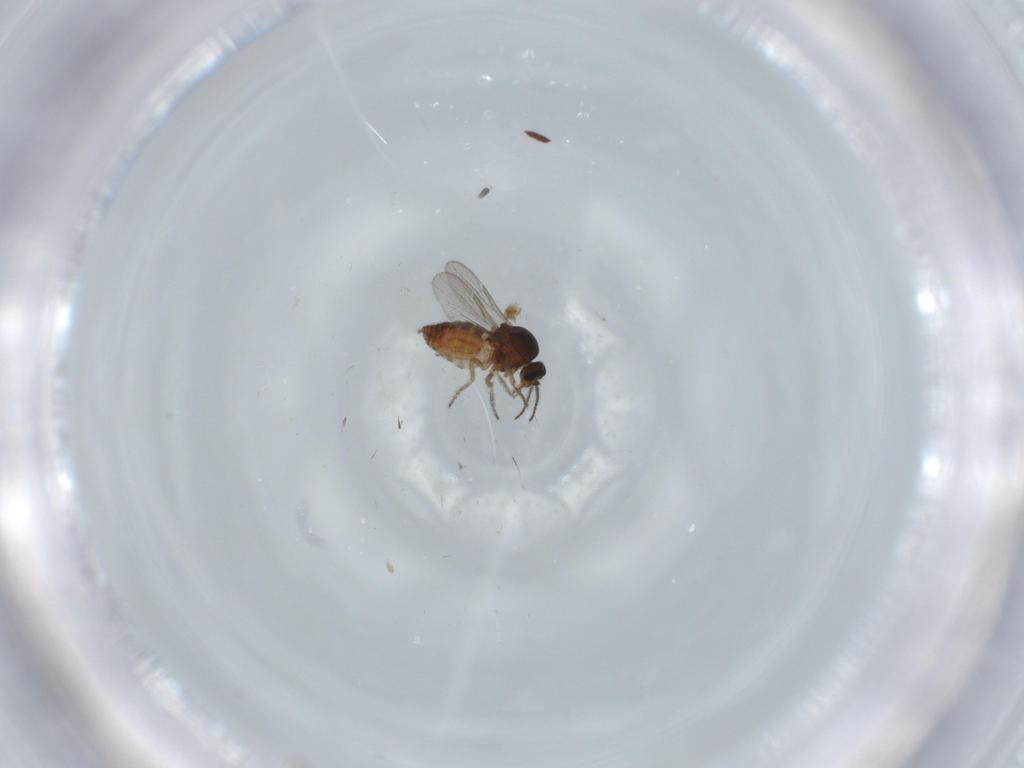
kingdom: Animalia
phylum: Arthropoda
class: Insecta
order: Diptera
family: Ceratopogonidae
